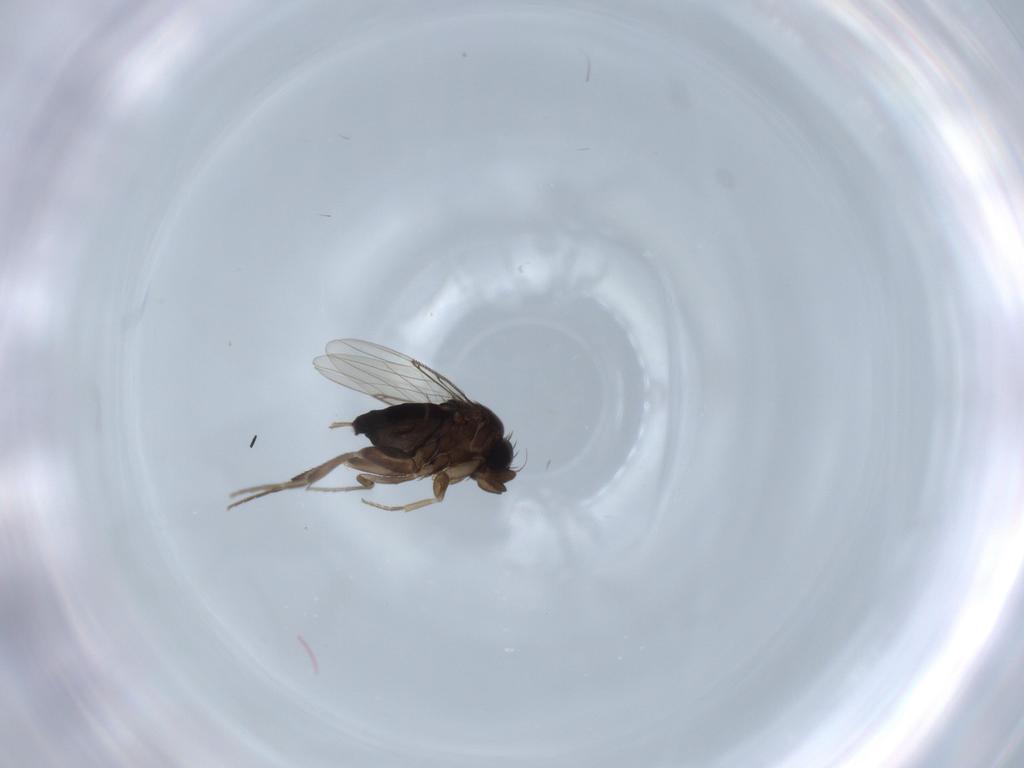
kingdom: Animalia
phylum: Arthropoda
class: Insecta
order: Diptera
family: Phoridae
